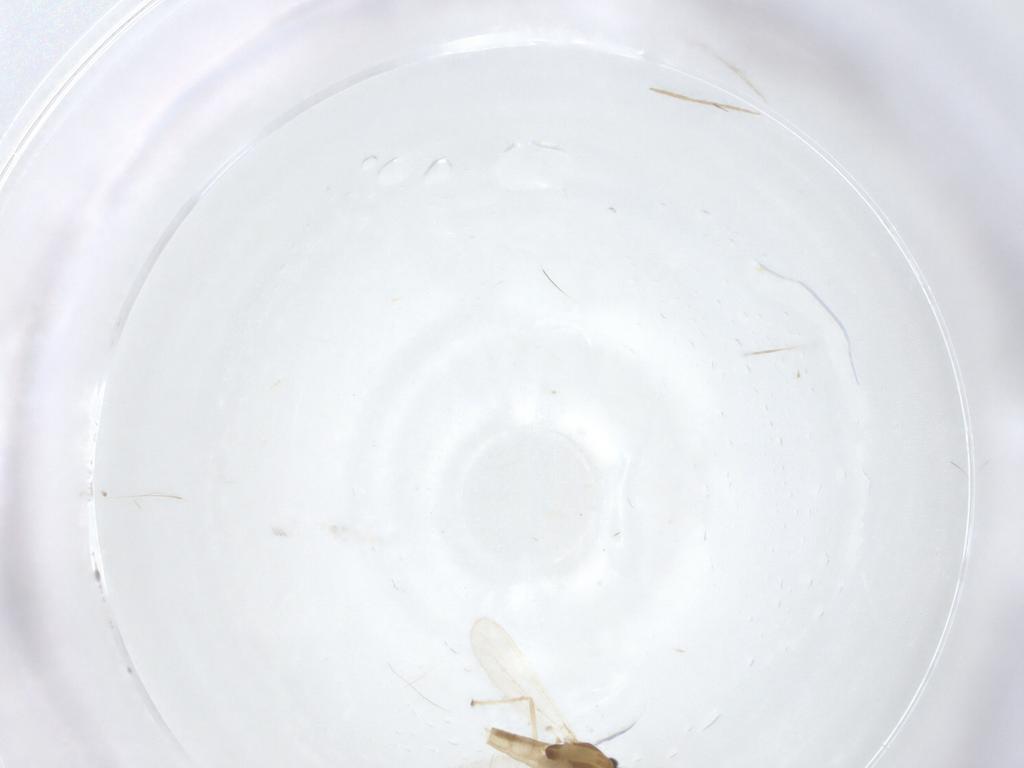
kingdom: Animalia
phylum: Arthropoda
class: Insecta
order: Diptera
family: Chironomidae
